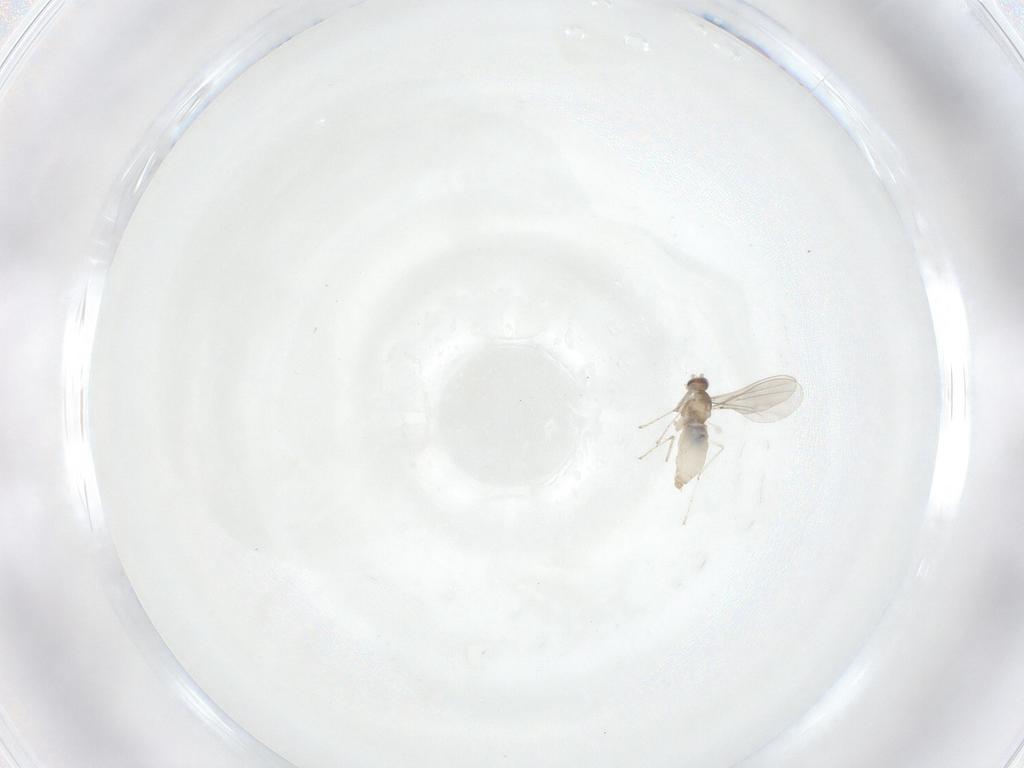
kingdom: Animalia
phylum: Arthropoda
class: Insecta
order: Diptera
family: Cecidomyiidae
